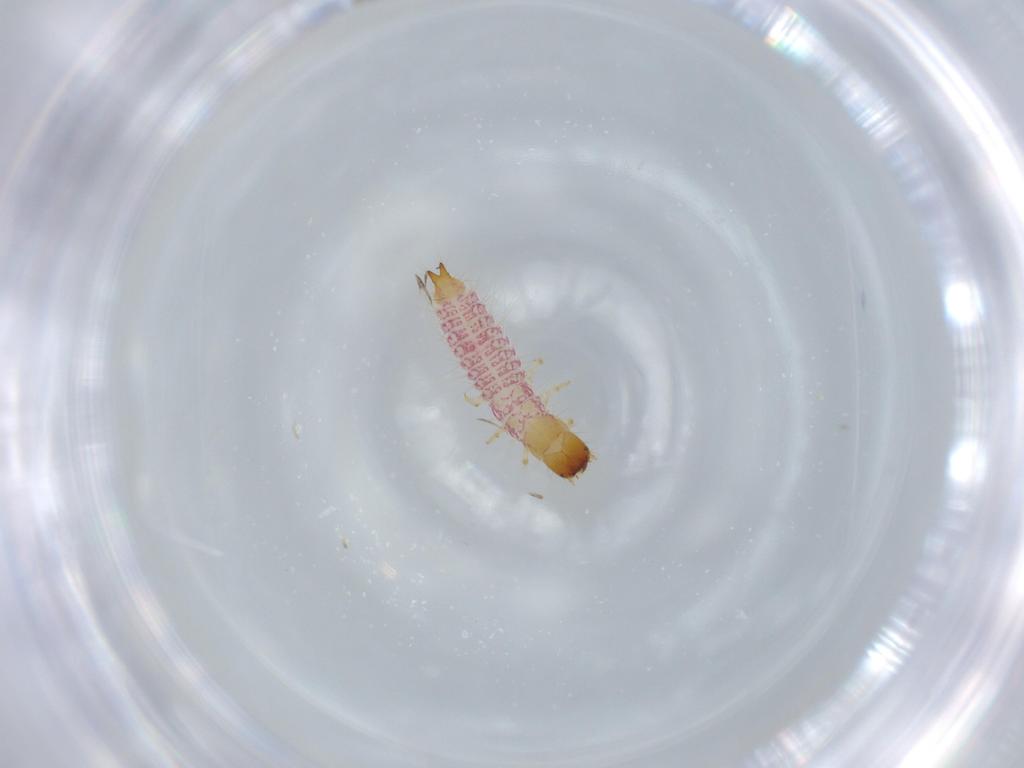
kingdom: Animalia
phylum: Arthropoda
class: Insecta
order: Coleoptera
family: Cleridae
